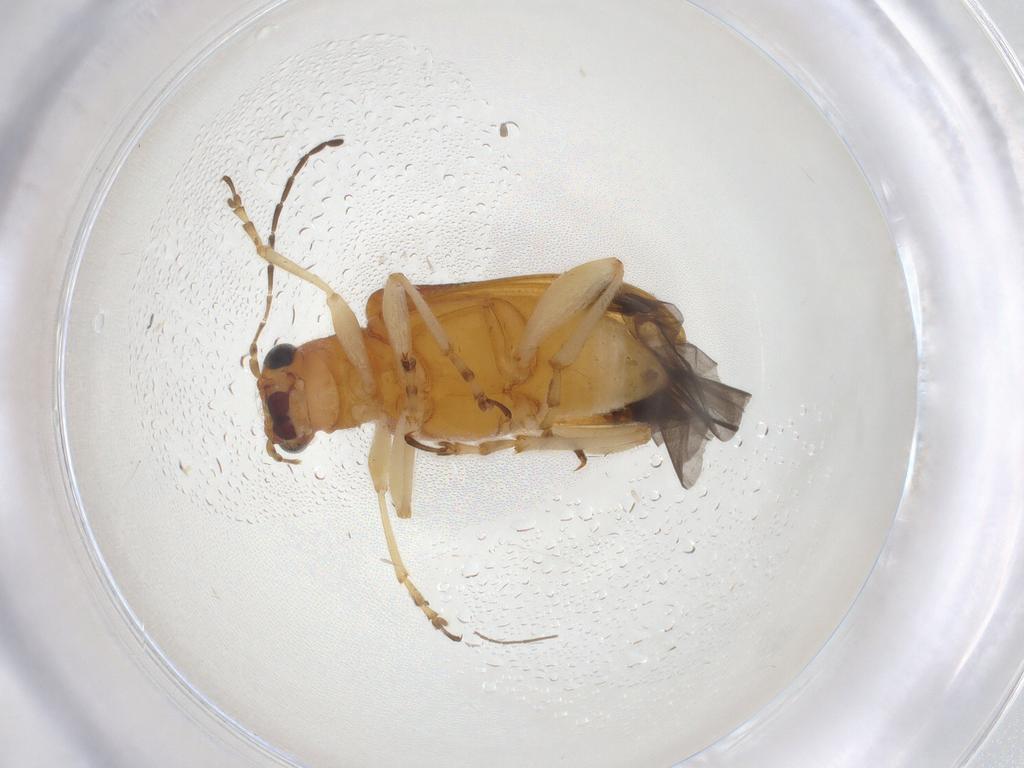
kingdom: Animalia
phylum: Arthropoda
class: Insecta
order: Coleoptera
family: Chrysomelidae
